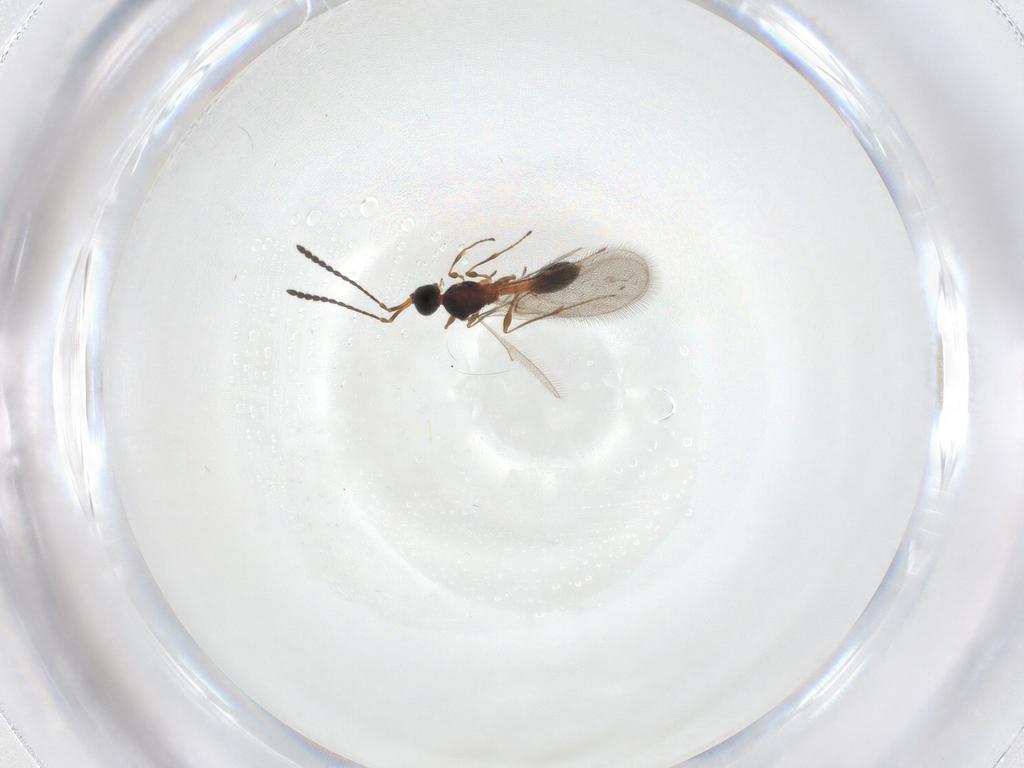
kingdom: Animalia
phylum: Arthropoda
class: Insecta
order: Hymenoptera
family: Diapriidae
